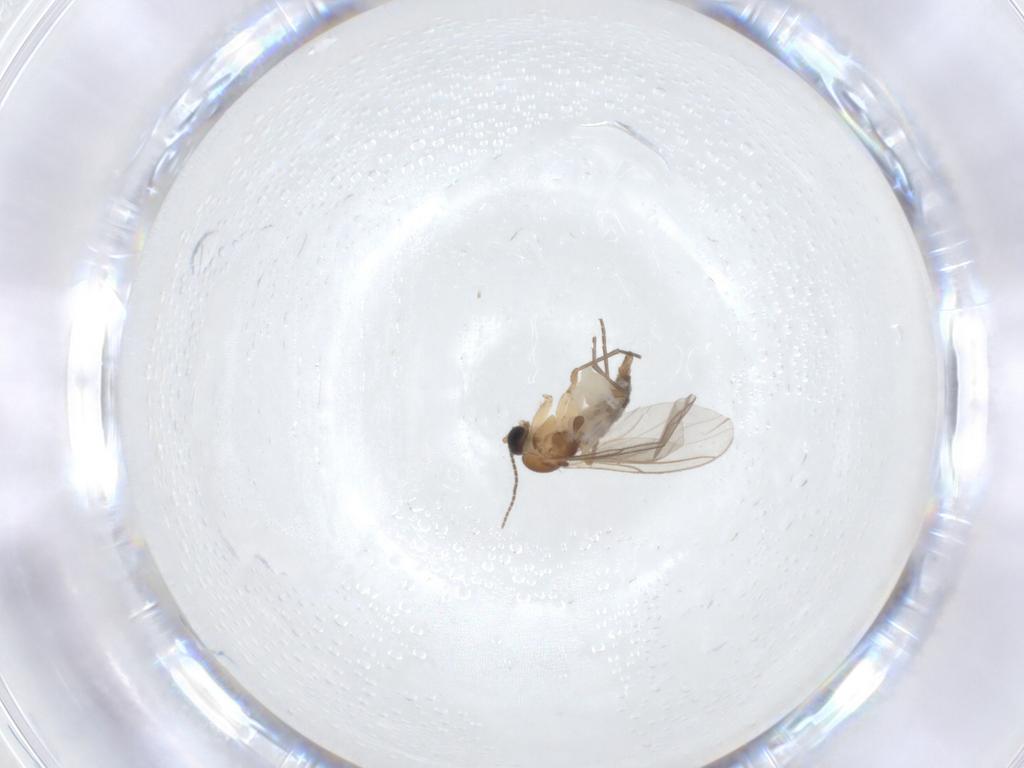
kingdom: Animalia
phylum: Arthropoda
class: Insecta
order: Diptera
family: Sciaridae
